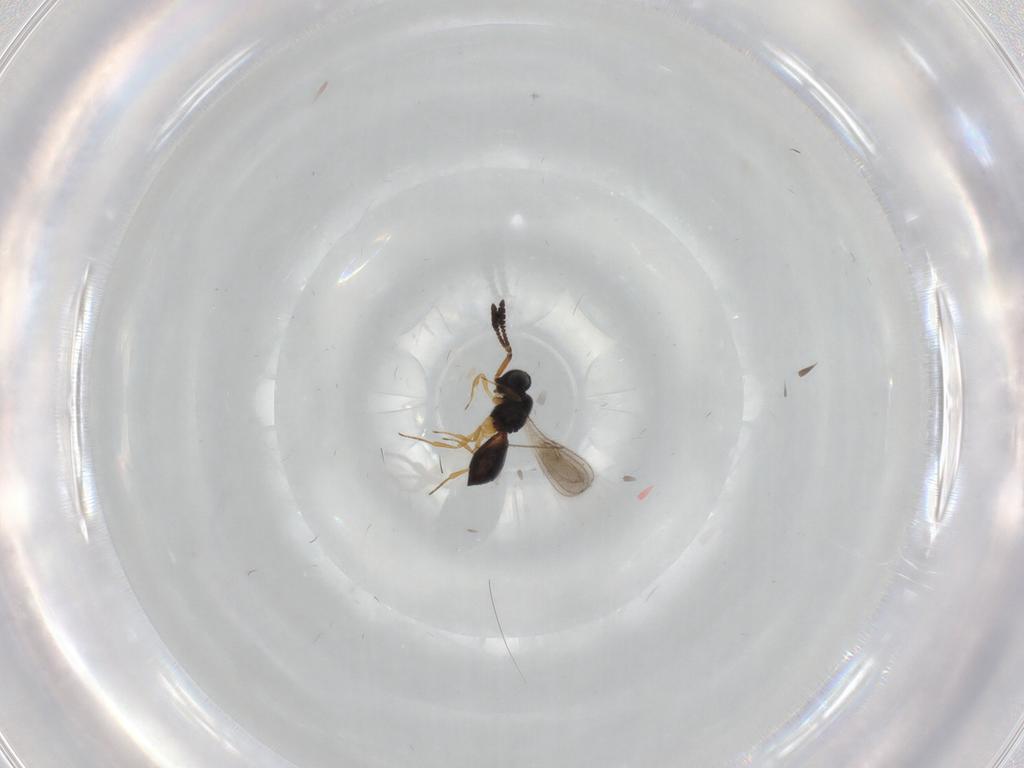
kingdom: Animalia
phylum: Arthropoda
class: Insecta
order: Hymenoptera
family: Scelionidae
